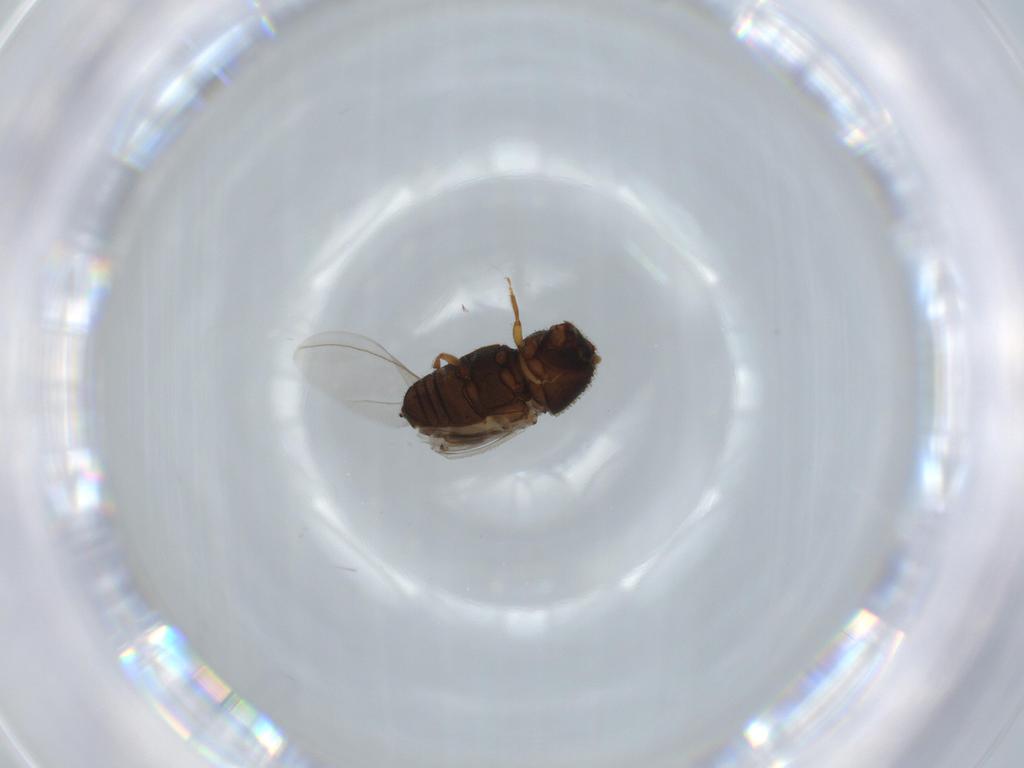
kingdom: Animalia
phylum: Arthropoda
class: Insecta
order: Coleoptera
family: Curculionidae
